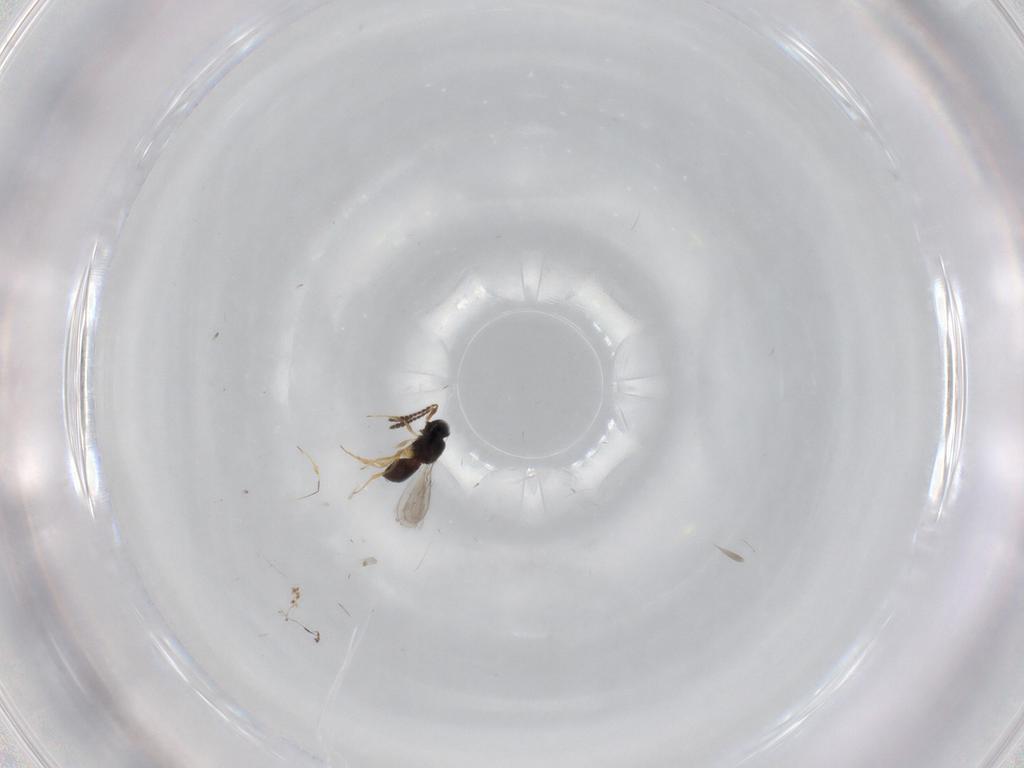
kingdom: Animalia
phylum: Arthropoda
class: Insecta
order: Hymenoptera
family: Scelionidae
